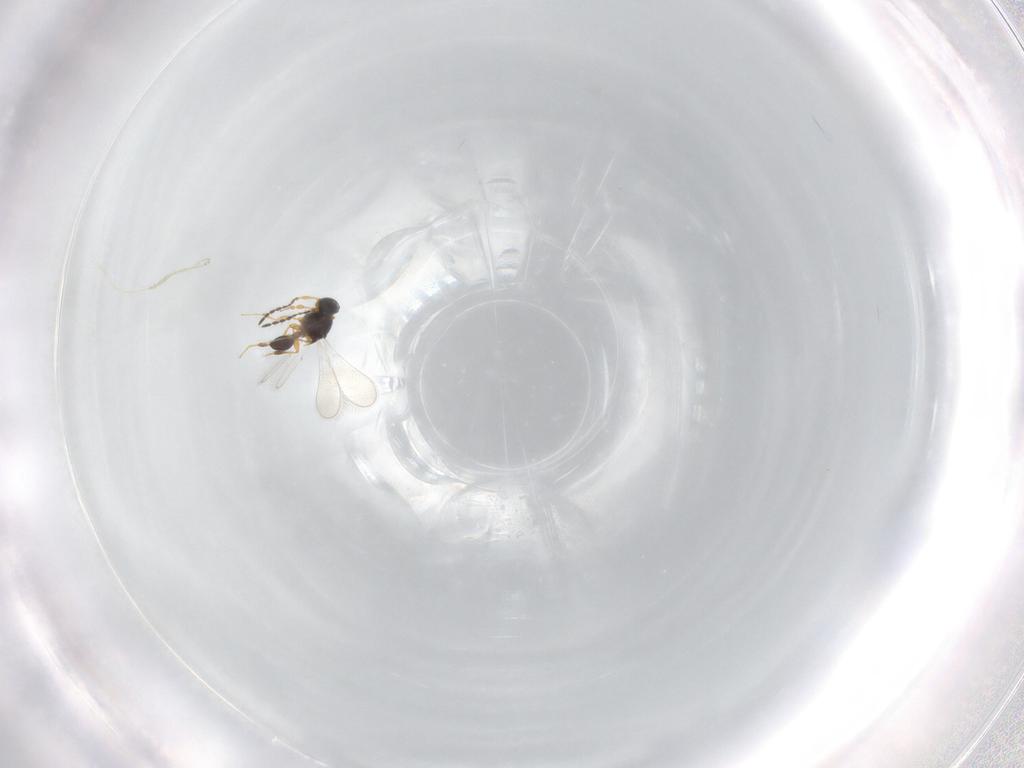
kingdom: Animalia
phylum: Arthropoda
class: Insecta
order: Hymenoptera
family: Platygastridae
